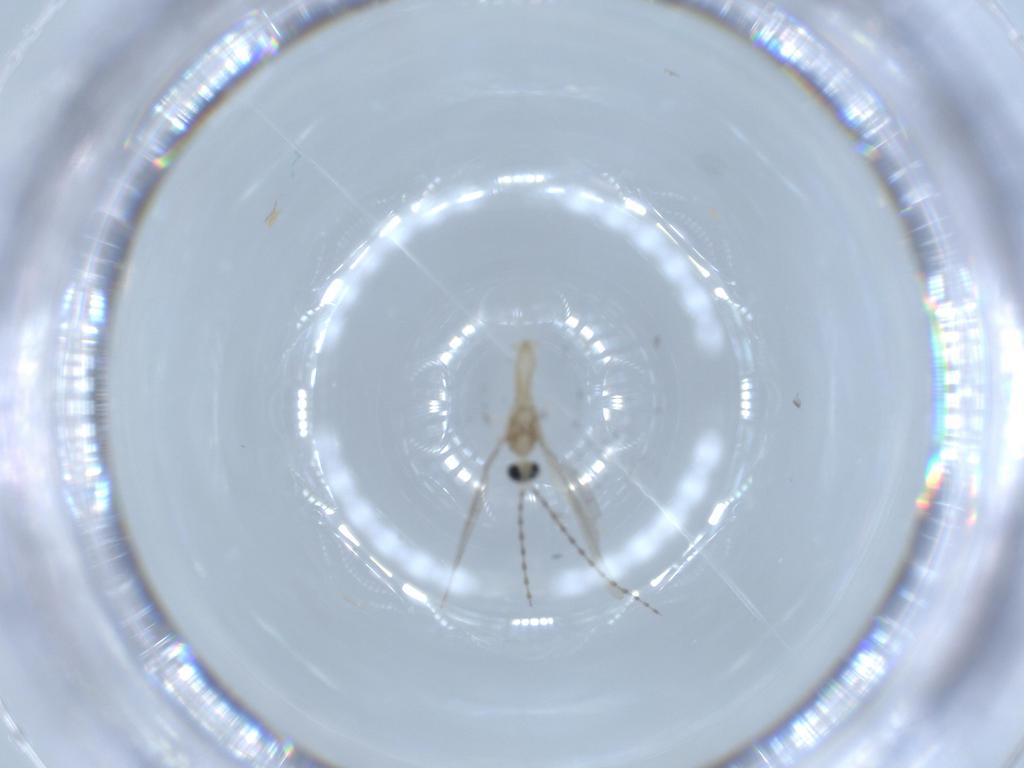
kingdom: Animalia
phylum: Arthropoda
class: Insecta
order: Diptera
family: Cecidomyiidae
